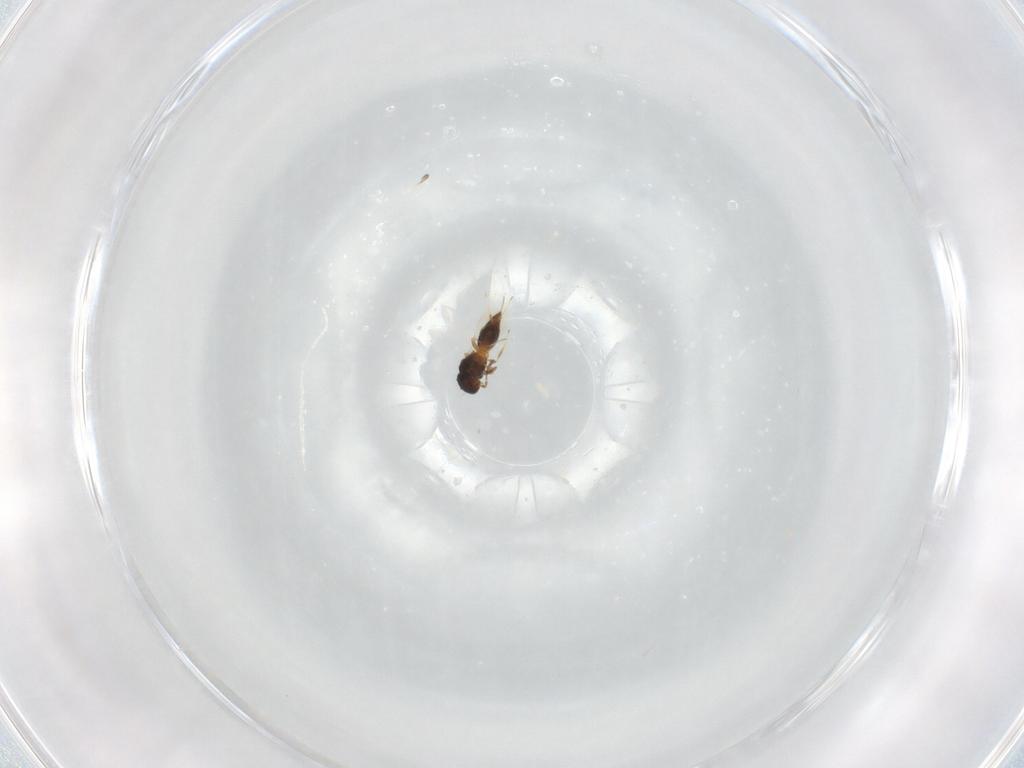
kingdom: Animalia
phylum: Arthropoda
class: Insecta
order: Hymenoptera
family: Platygastridae
